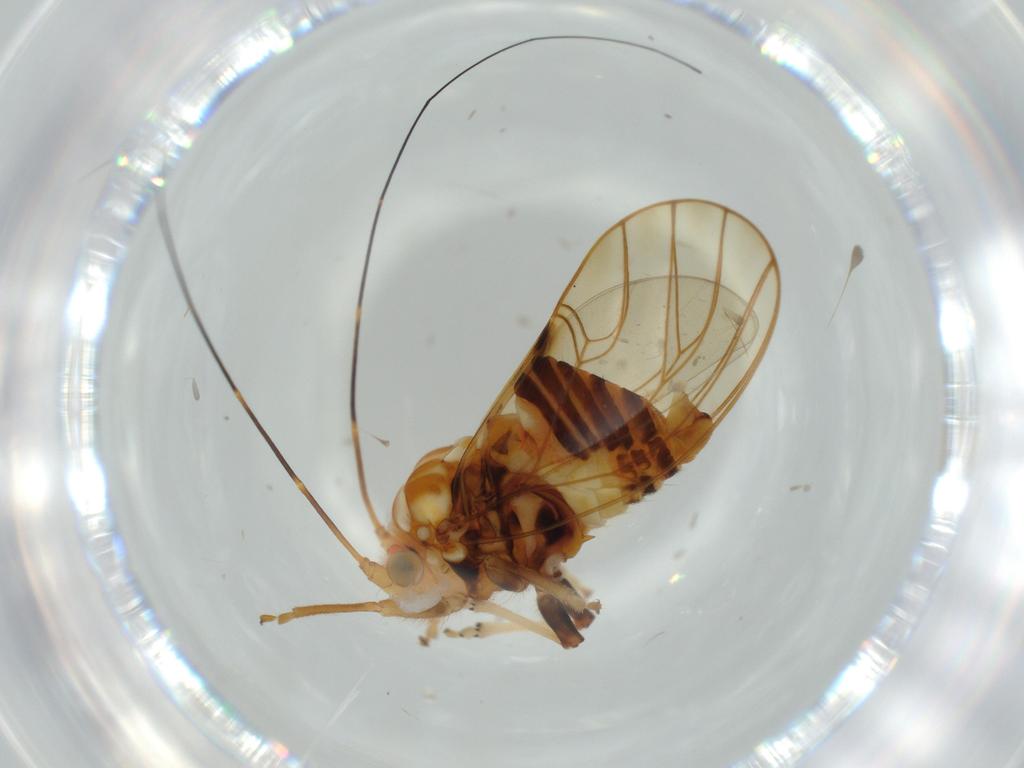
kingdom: Animalia
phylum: Arthropoda
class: Insecta
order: Hemiptera
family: Psyllidae
